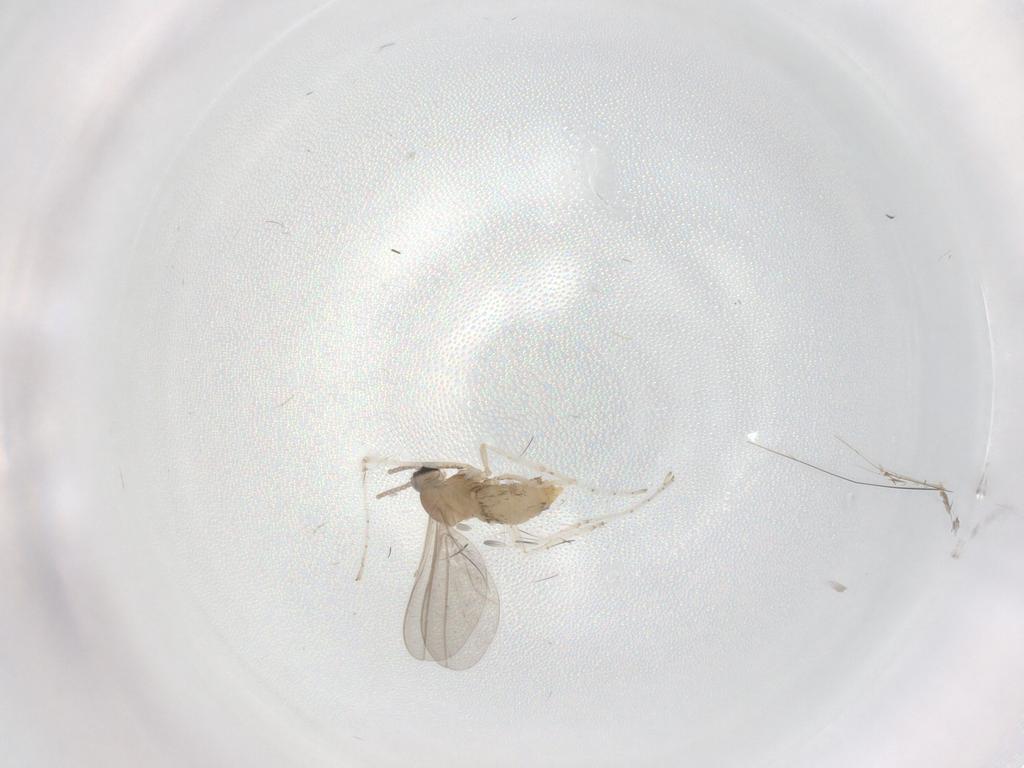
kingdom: Animalia
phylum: Arthropoda
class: Insecta
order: Diptera
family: Cecidomyiidae
